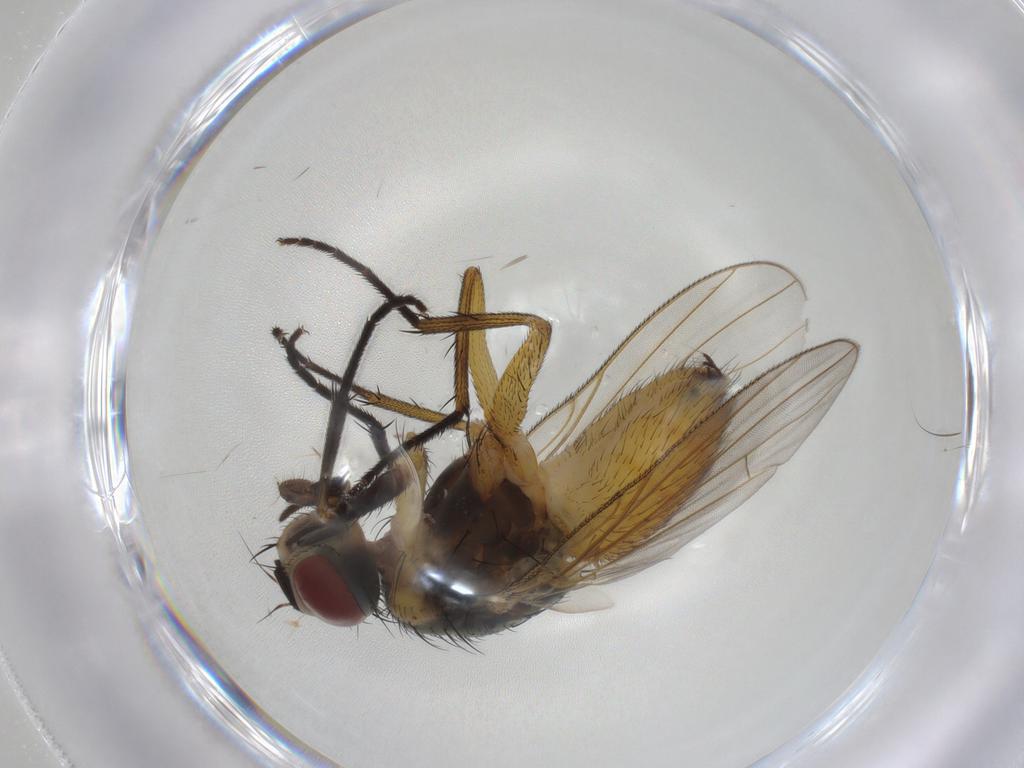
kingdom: Animalia
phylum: Arthropoda
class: Insecta
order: Diptera
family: Muscidae
